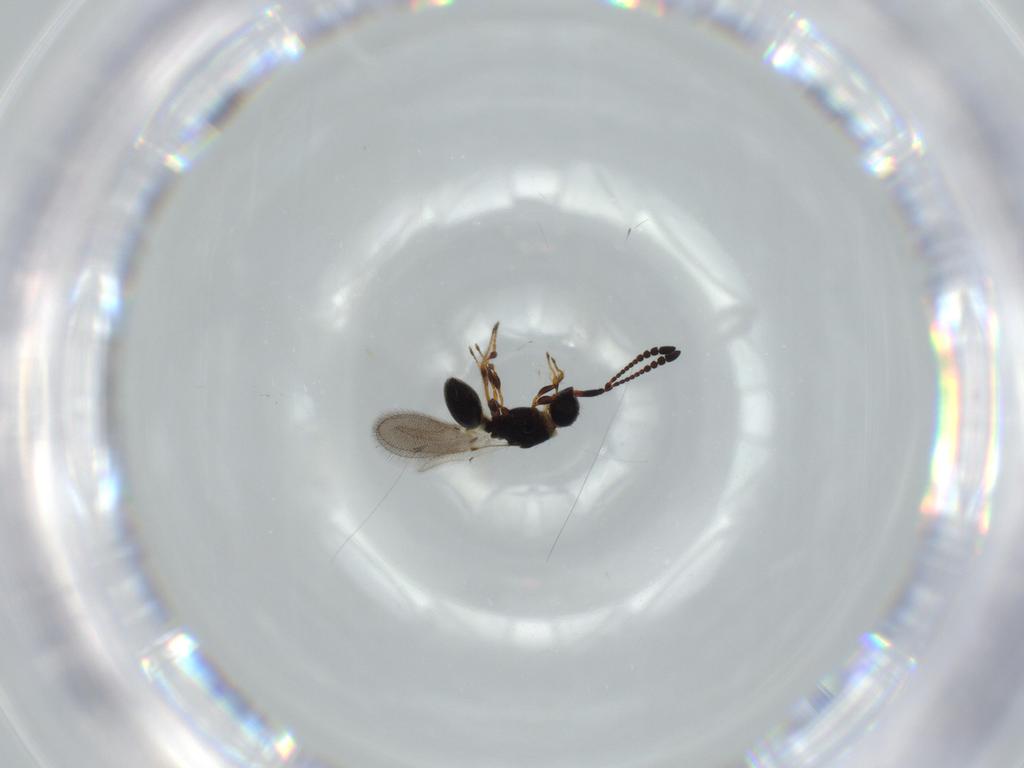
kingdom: Animalia
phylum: Arthropoda
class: Insecta
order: Hymenoptera
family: Diapriidae
